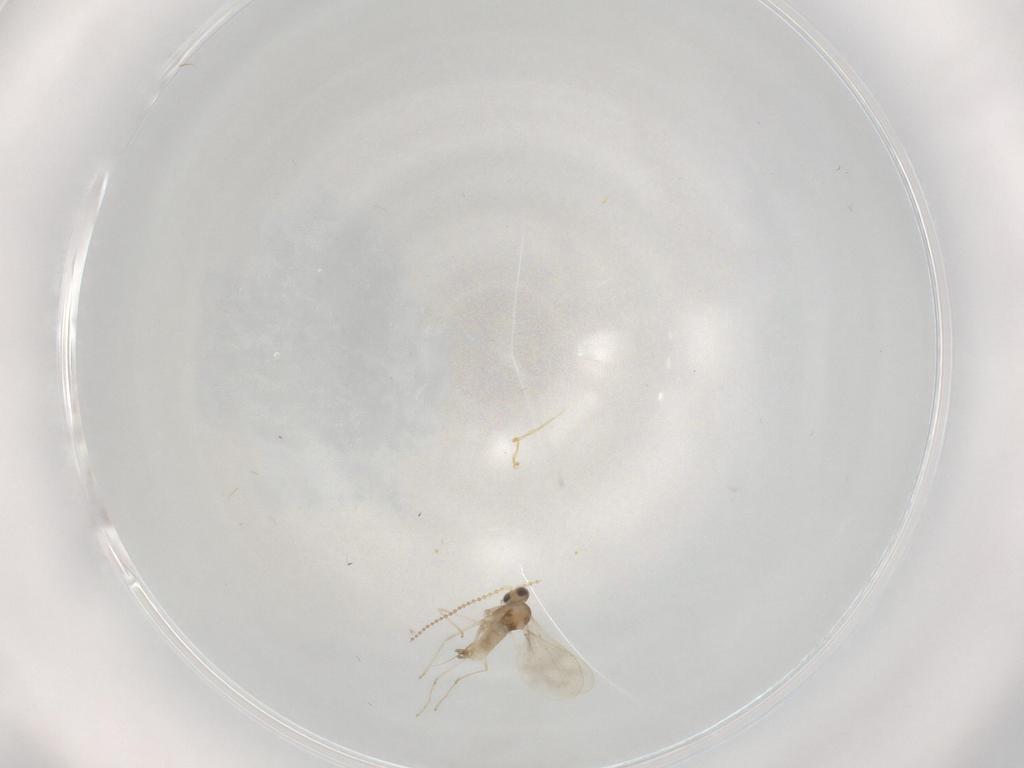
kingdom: Animalia
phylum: Arthropoda
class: Insecta
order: Diptera
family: Cecidomyiidae
